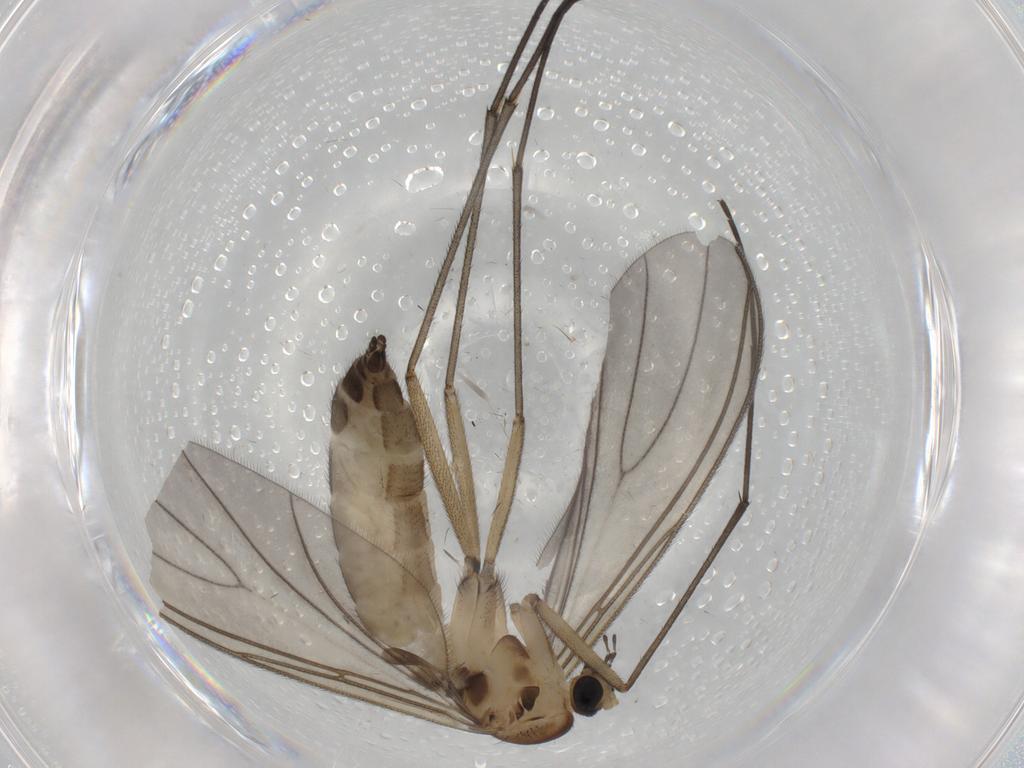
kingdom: Animalia
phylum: Arthropoda
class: Insecta
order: Diptera
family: Sciaridae
